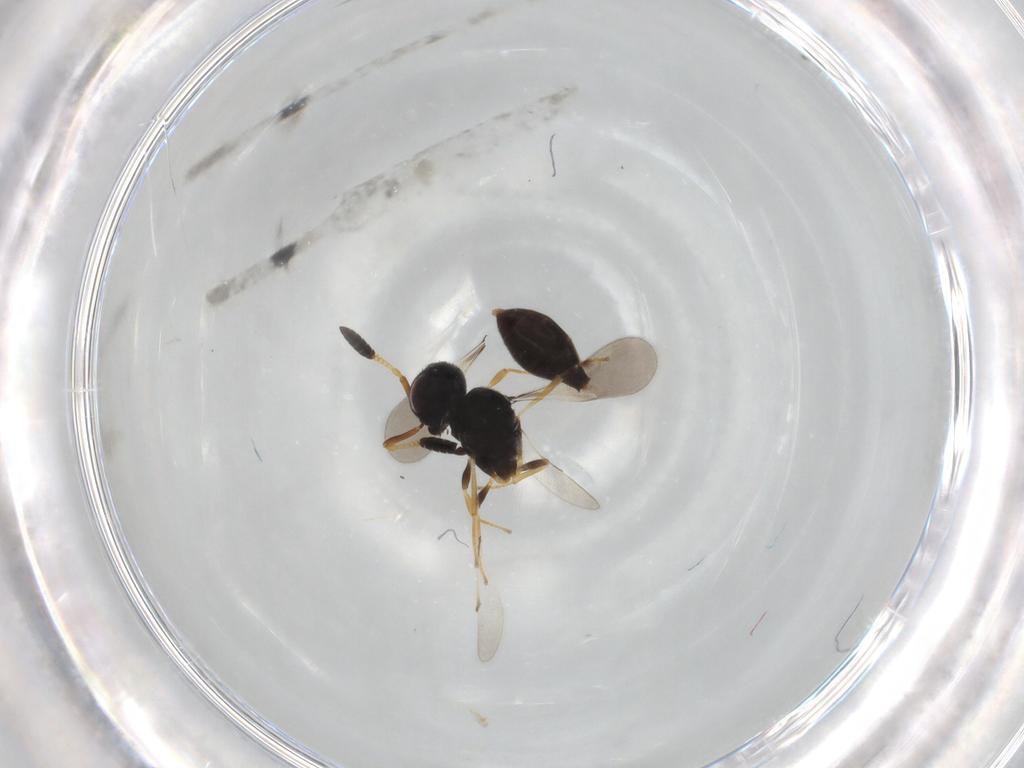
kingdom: Animalia
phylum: Arthropoda
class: Insecta
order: Hymenoptera
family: Scelionidae
